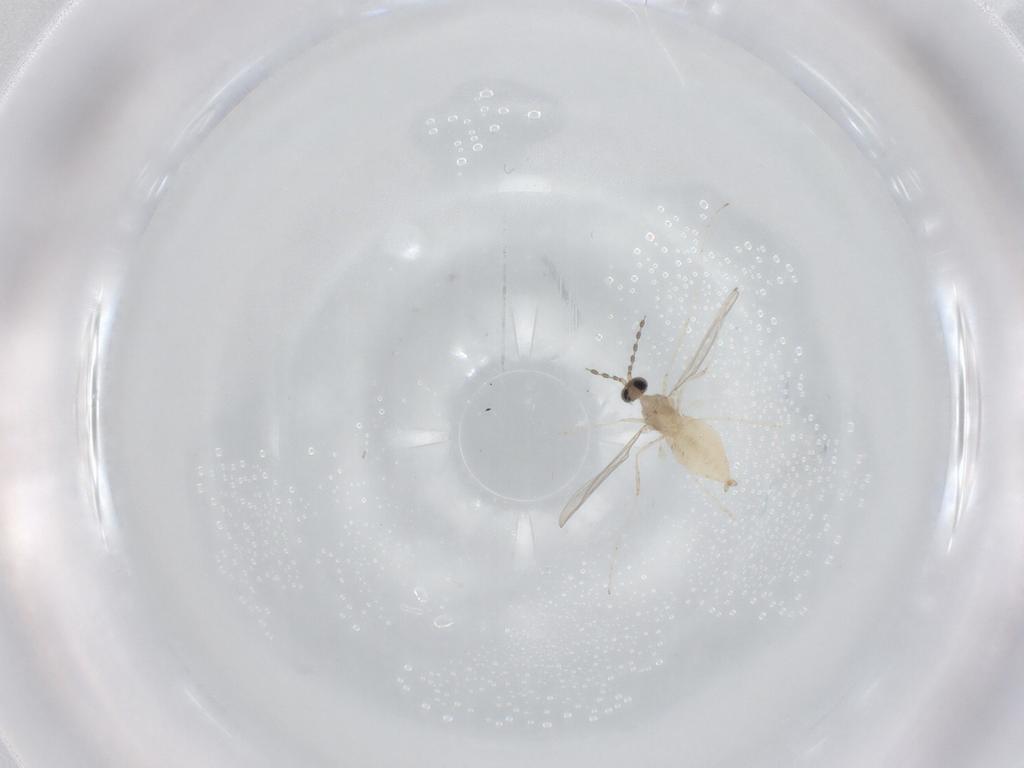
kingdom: Animalia
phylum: Arthropoda
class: Insecta
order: Diptera
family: Cecidomyiidae
